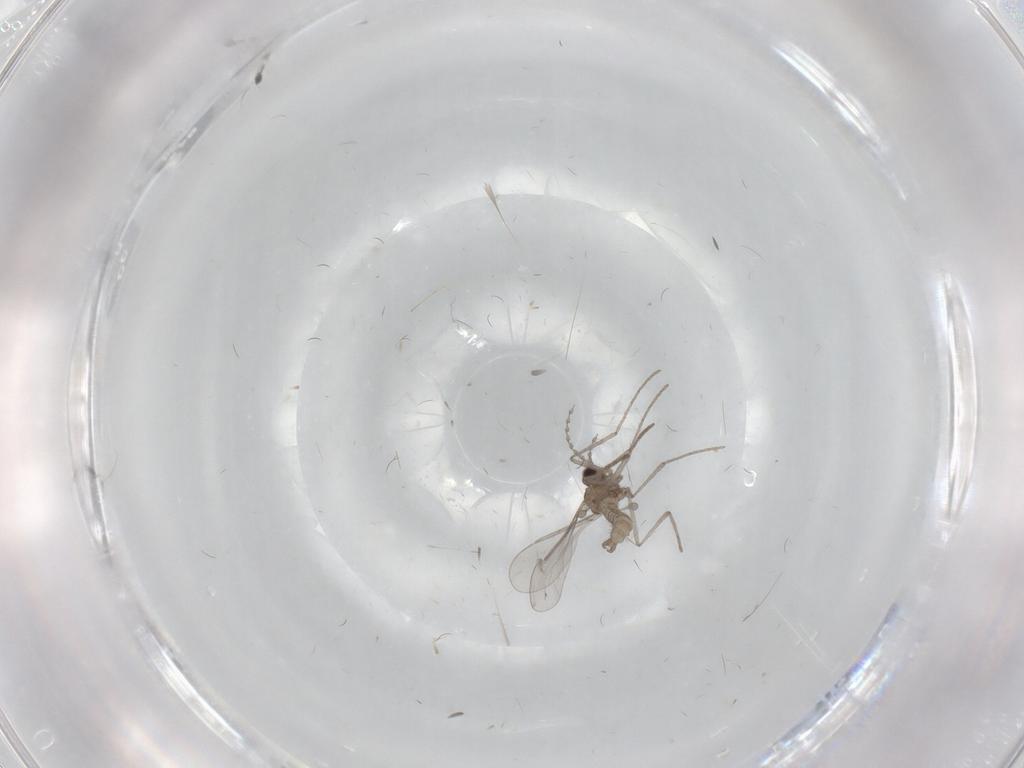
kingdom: Animalia
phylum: Arthropoda
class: Insecta
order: Diptera
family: Cecidomyiidae
